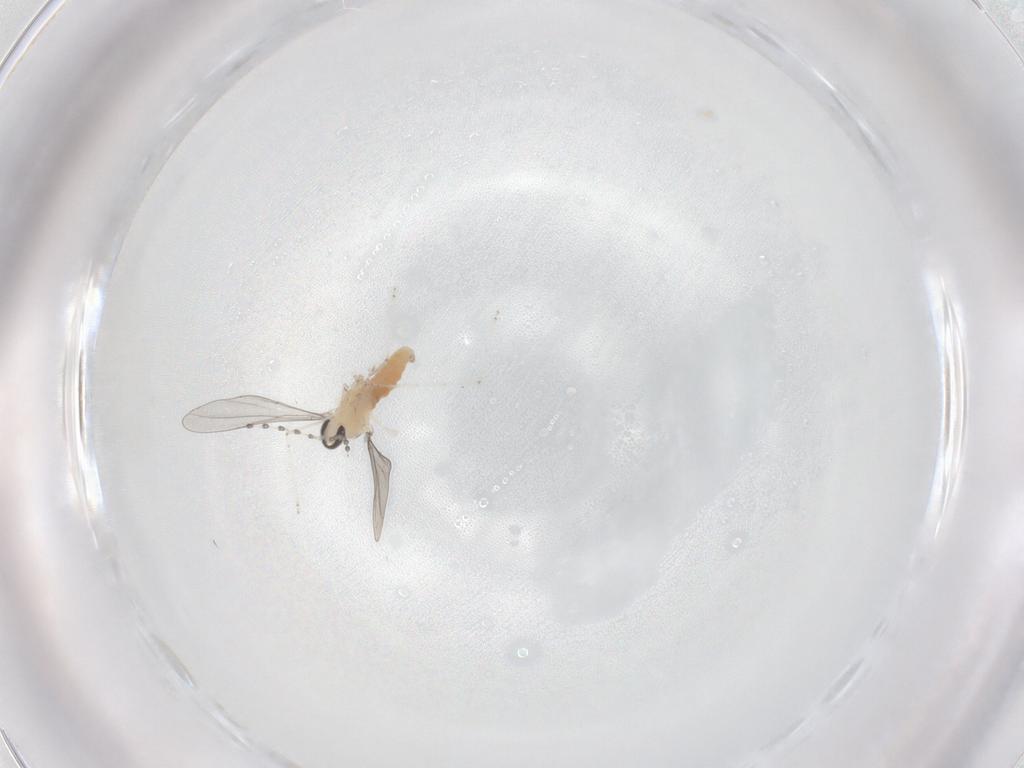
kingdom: Animalia
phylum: Arthropoda
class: Insecta
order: Diptera
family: Cecidomyiidae
